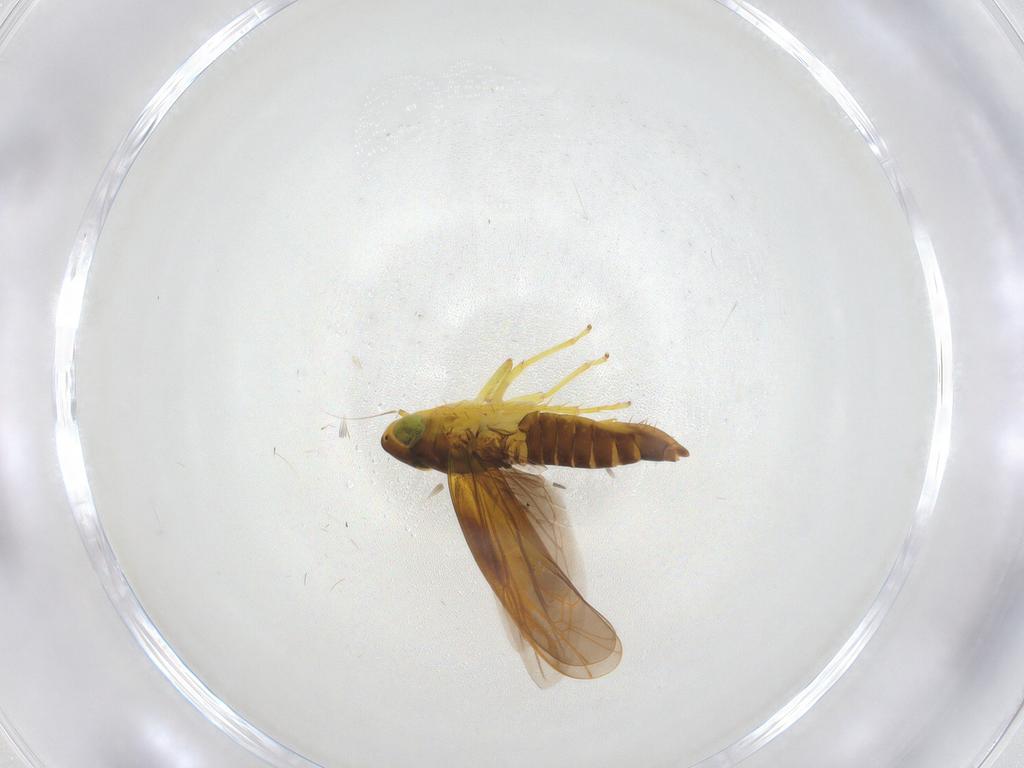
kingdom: Animalia
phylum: Arthropoda
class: Insecta
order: Hemiptera
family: Cicadellidae
